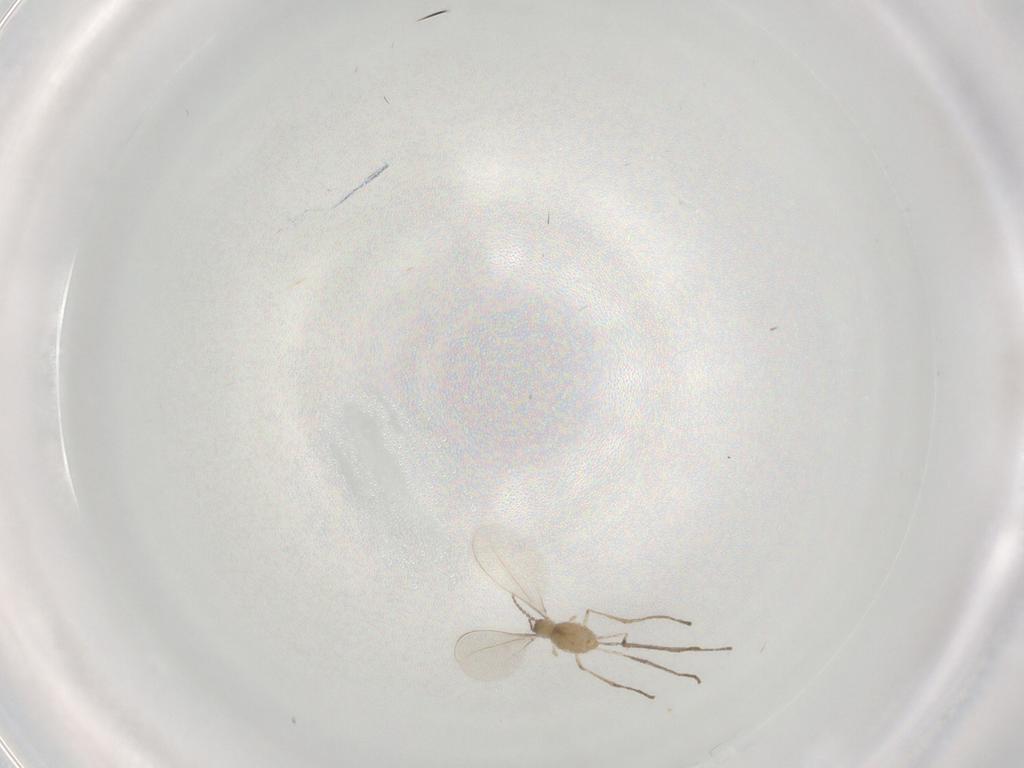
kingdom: Animalia
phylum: Arthropoda
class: Insecta
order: Diptera
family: Cecidomyiidae
